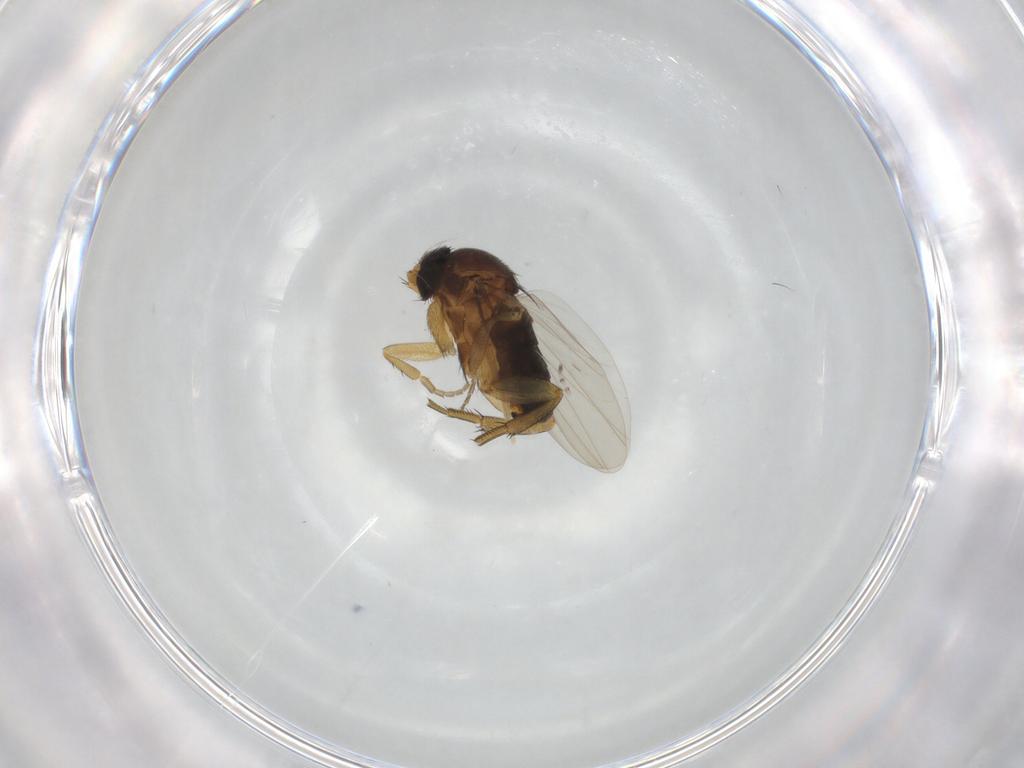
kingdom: Animalia
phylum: Arthropoda
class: Insecta
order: Diptera
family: Phoridae
